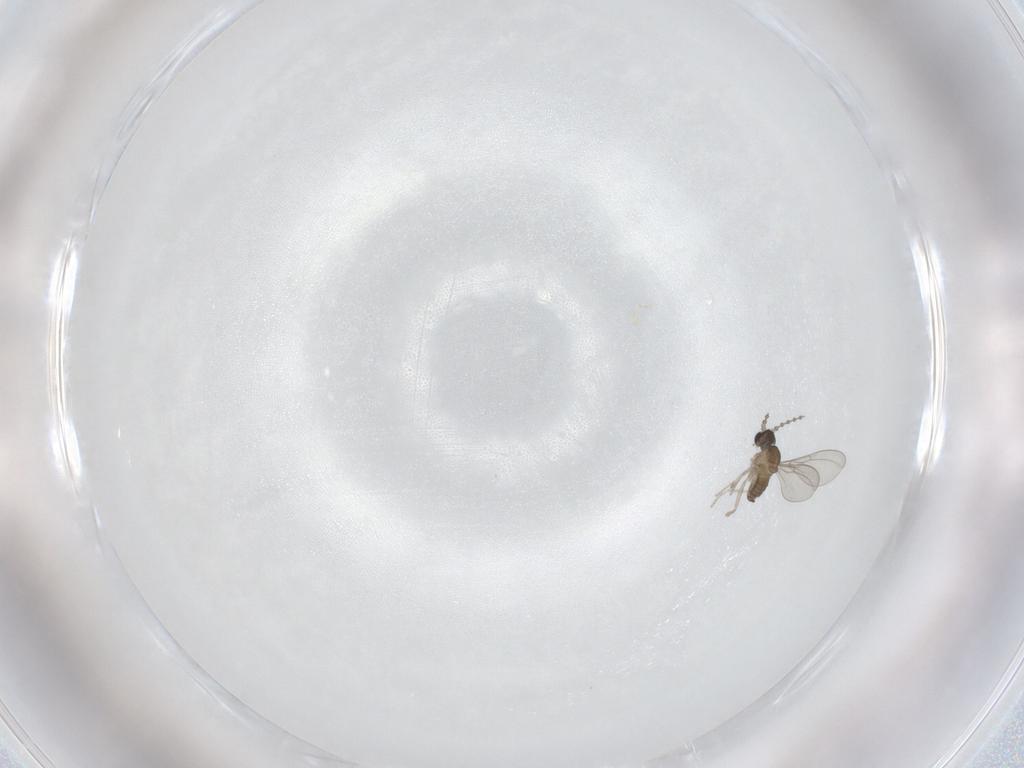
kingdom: Animalia
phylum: Arthropoda
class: Insecta
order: Diptera
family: Cecidomyiidae
